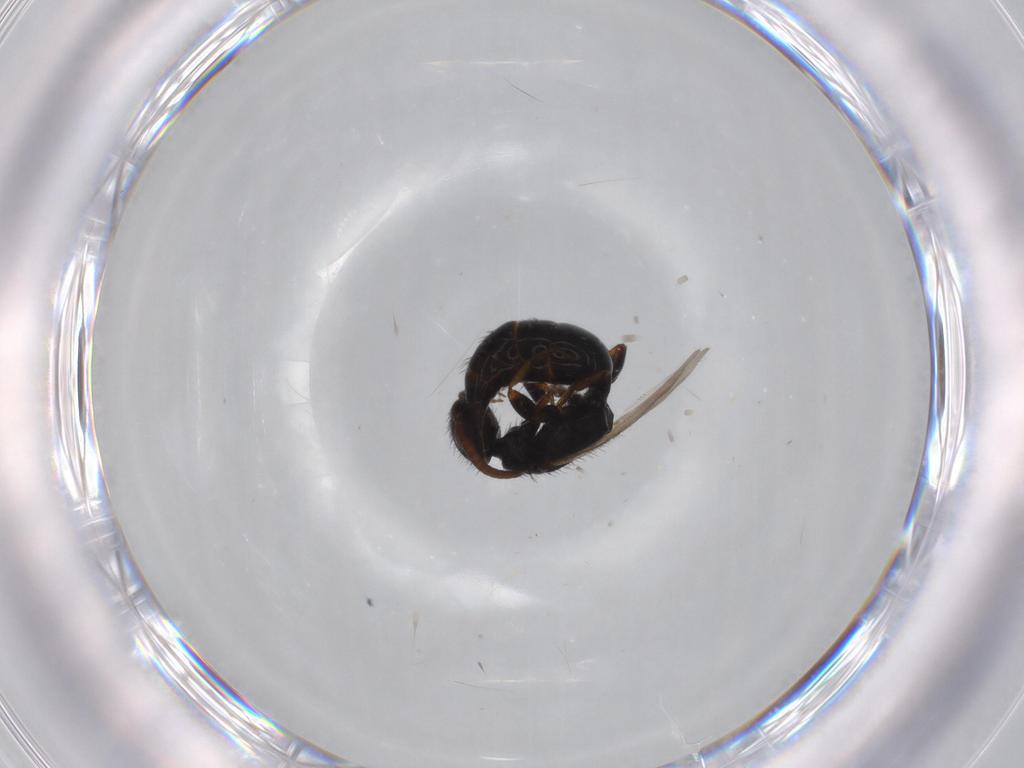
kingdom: Animalia
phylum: Arthropoda
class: Insecta
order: Hymenoptera
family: Bethylidae
